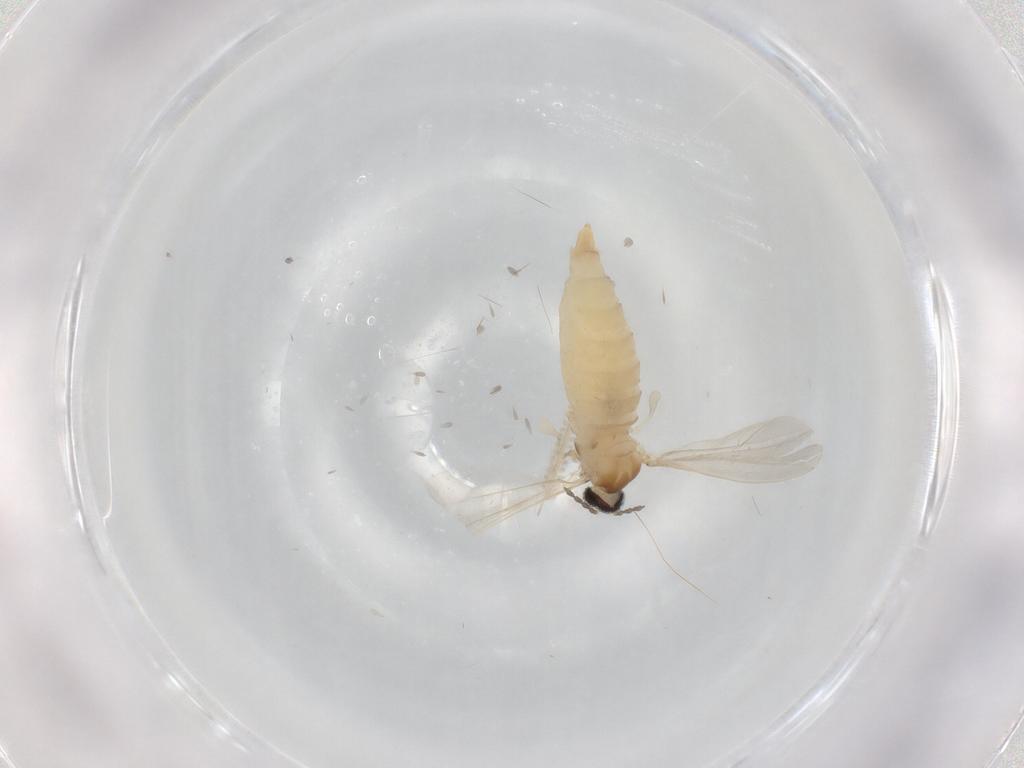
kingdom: Animalia
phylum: Arthropoda
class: Insecta
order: Diptera
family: Cecidomyiidae
